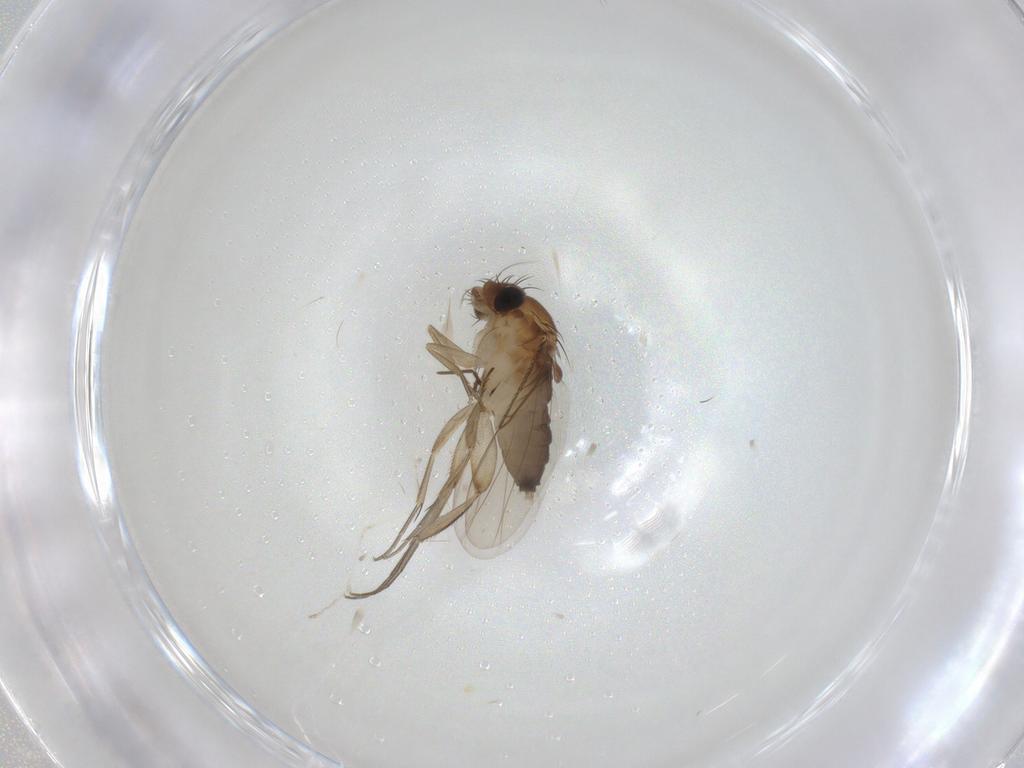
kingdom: Animalia
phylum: Arthropoda
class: Insecta
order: Diptera
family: Phoridae
